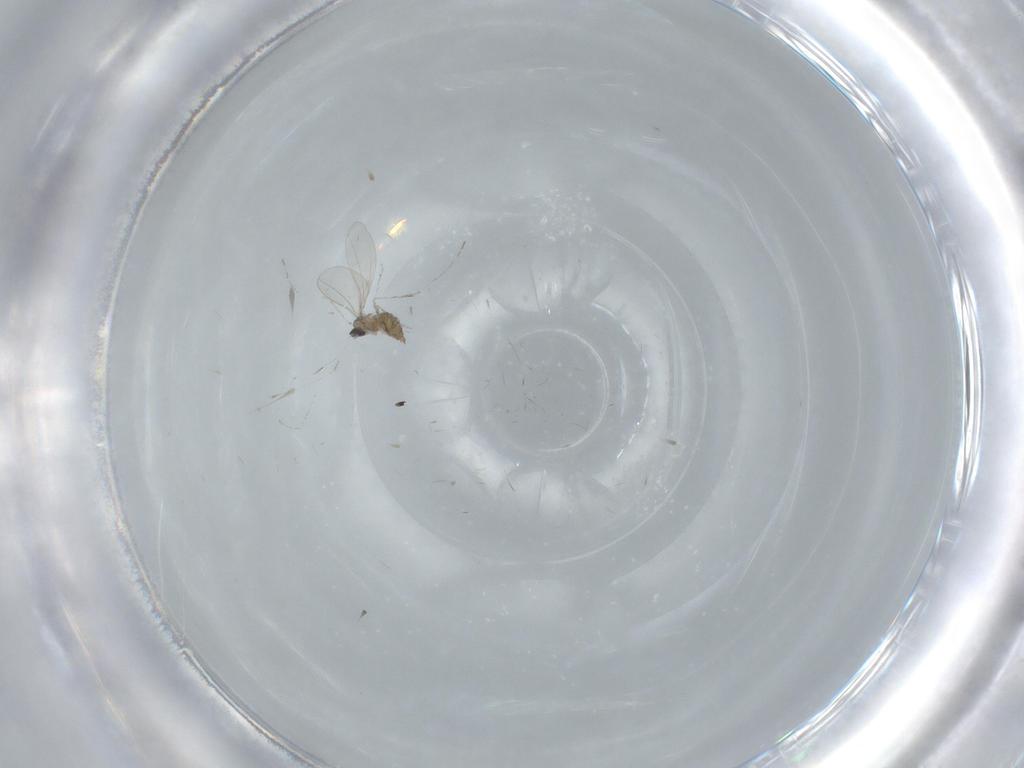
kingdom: Animalia
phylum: Arthropoda
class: Insecta
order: Diptera
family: Cecidomyiidae
